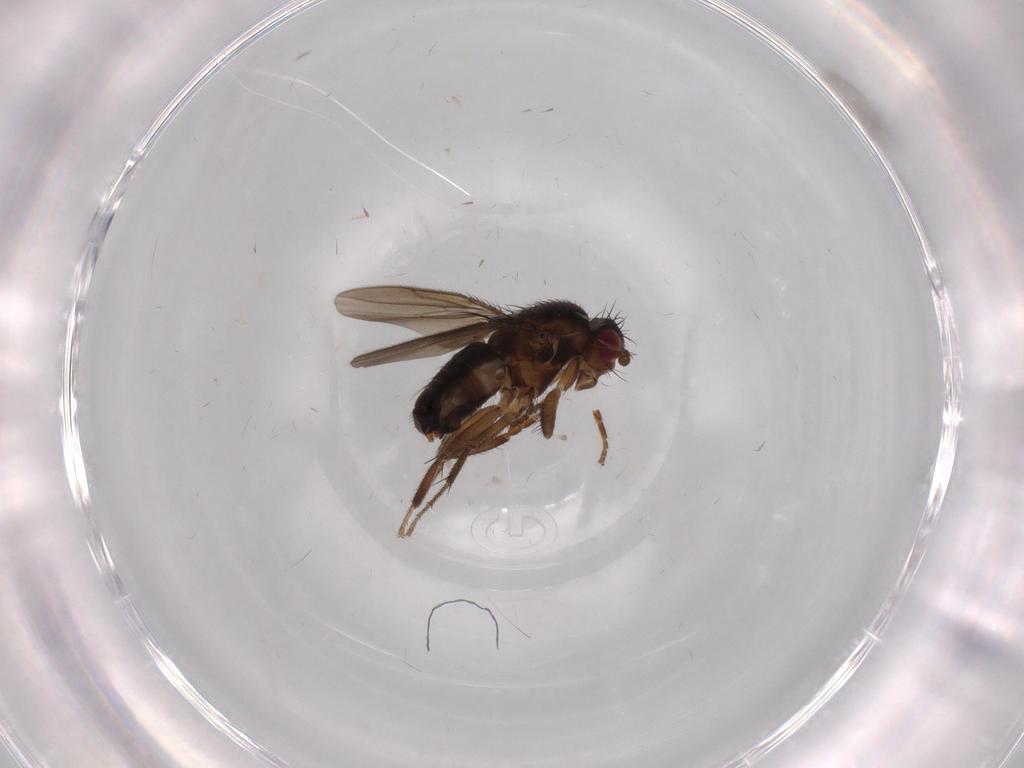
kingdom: Animalia
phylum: Arthropoda
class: Insecta
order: Diptera
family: Chironomidae
